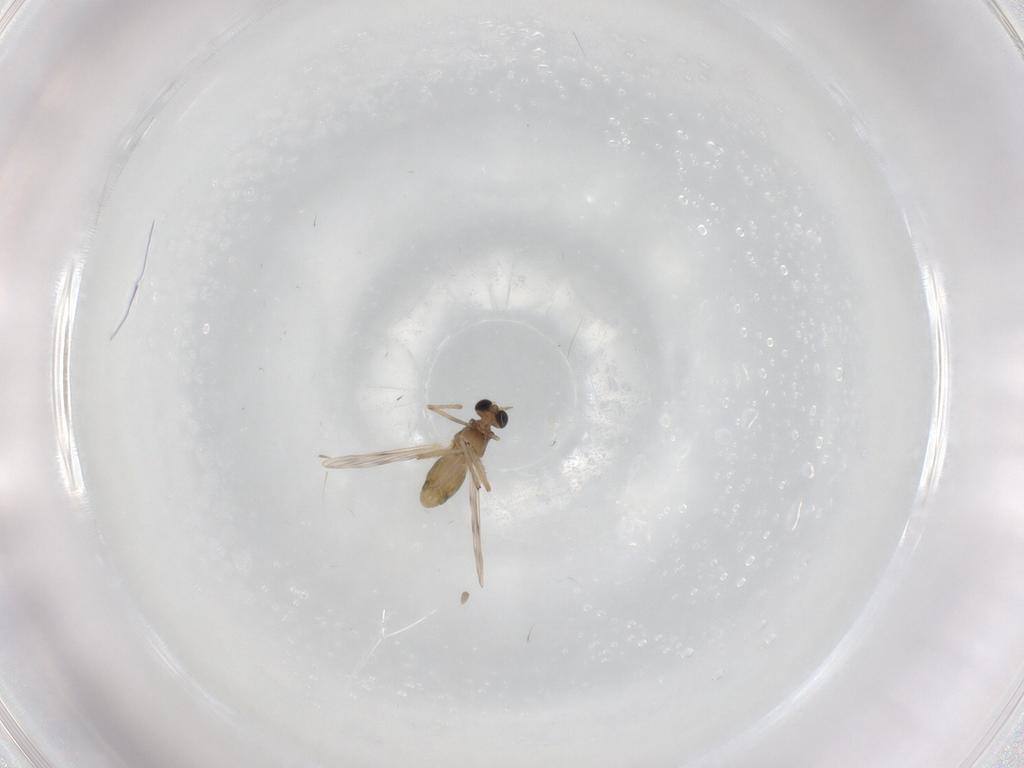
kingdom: Animalia
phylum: Arthropoda
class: Insecta
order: Diptera
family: Chironomidae
